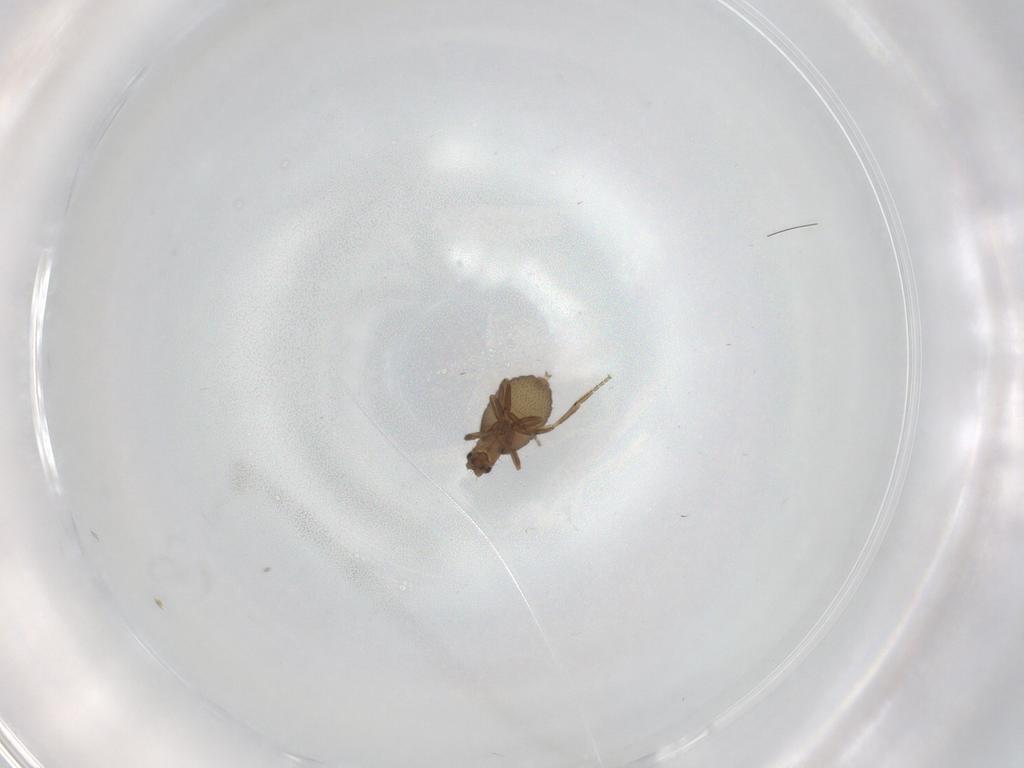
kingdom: Animalia
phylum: Arthropoda
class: Insecta
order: Diptera
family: Phoridae
